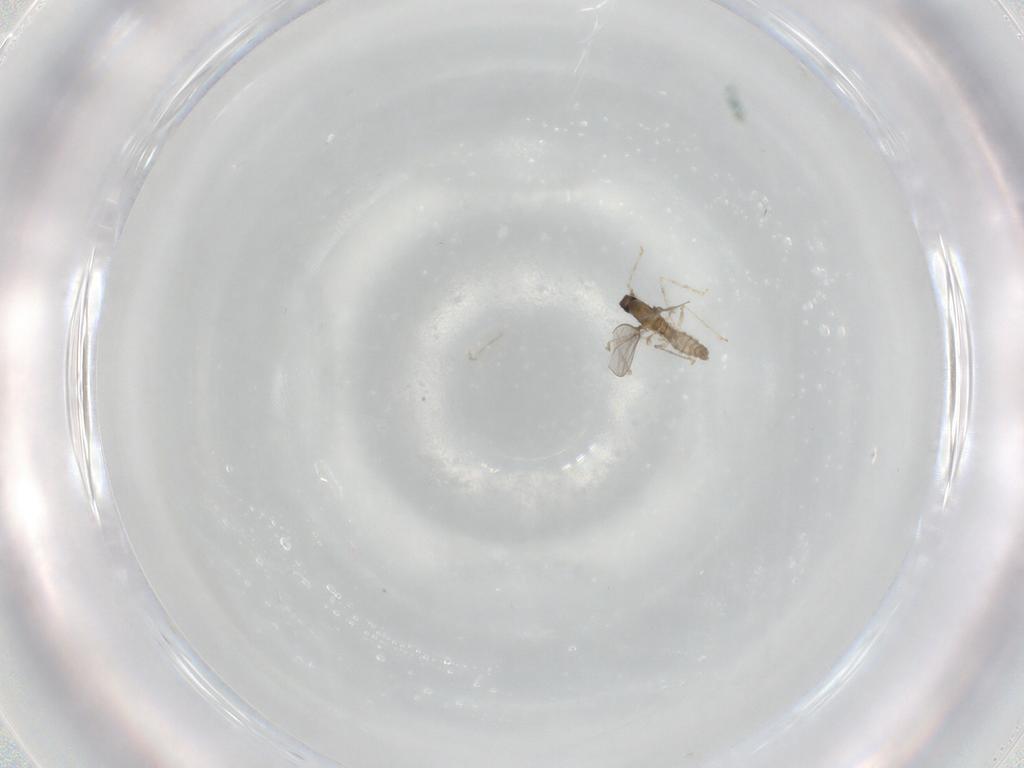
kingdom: Animalia
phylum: Arthropoda
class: Insecta
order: Diptera
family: Cecidomyiidae
